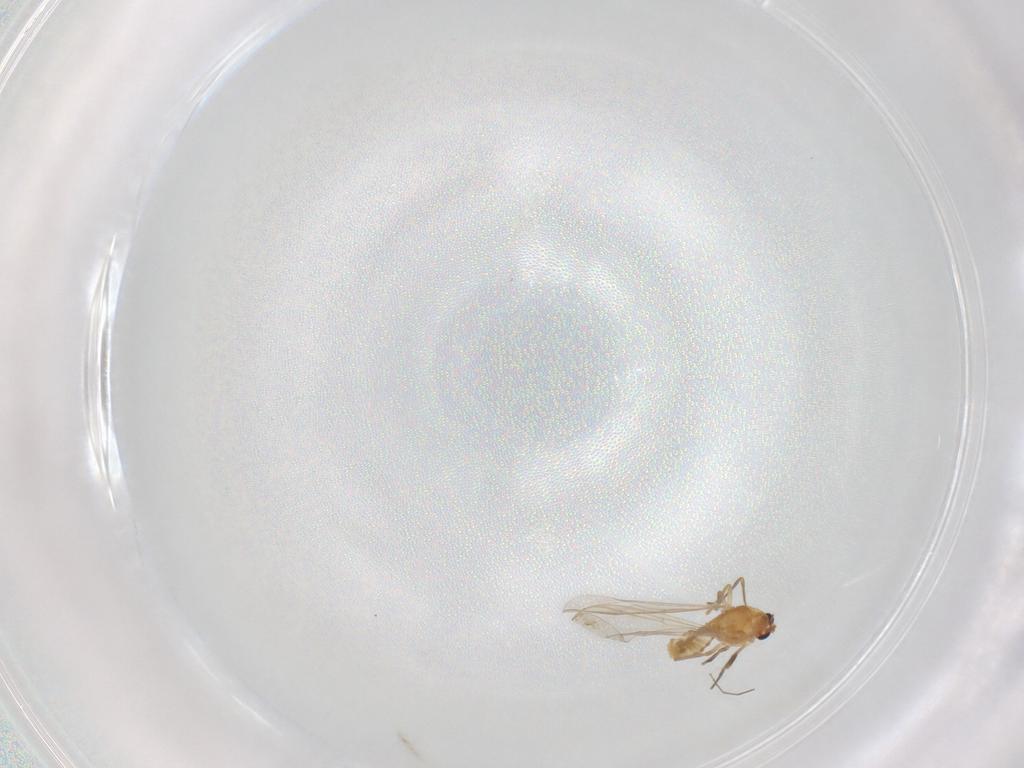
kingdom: Animalia
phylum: Arthropoda
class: Insecta
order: Diptera
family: Chironomidae
